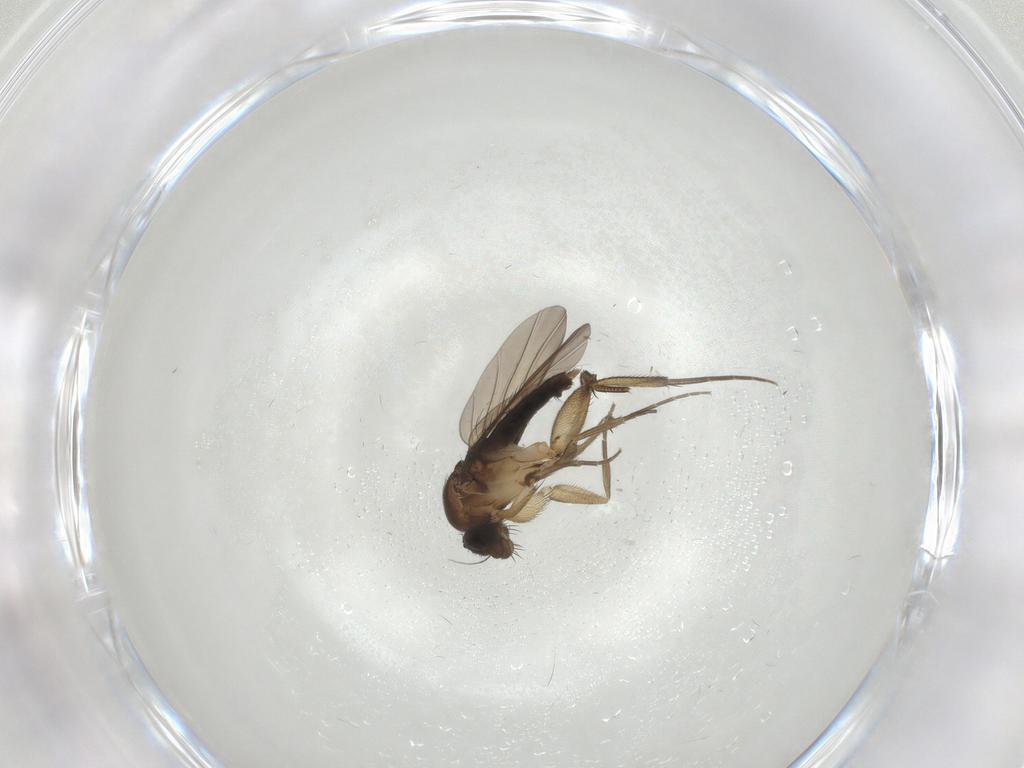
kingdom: Animalia
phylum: Arthropoda
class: Insecta
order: Diptera
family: Phoridae
